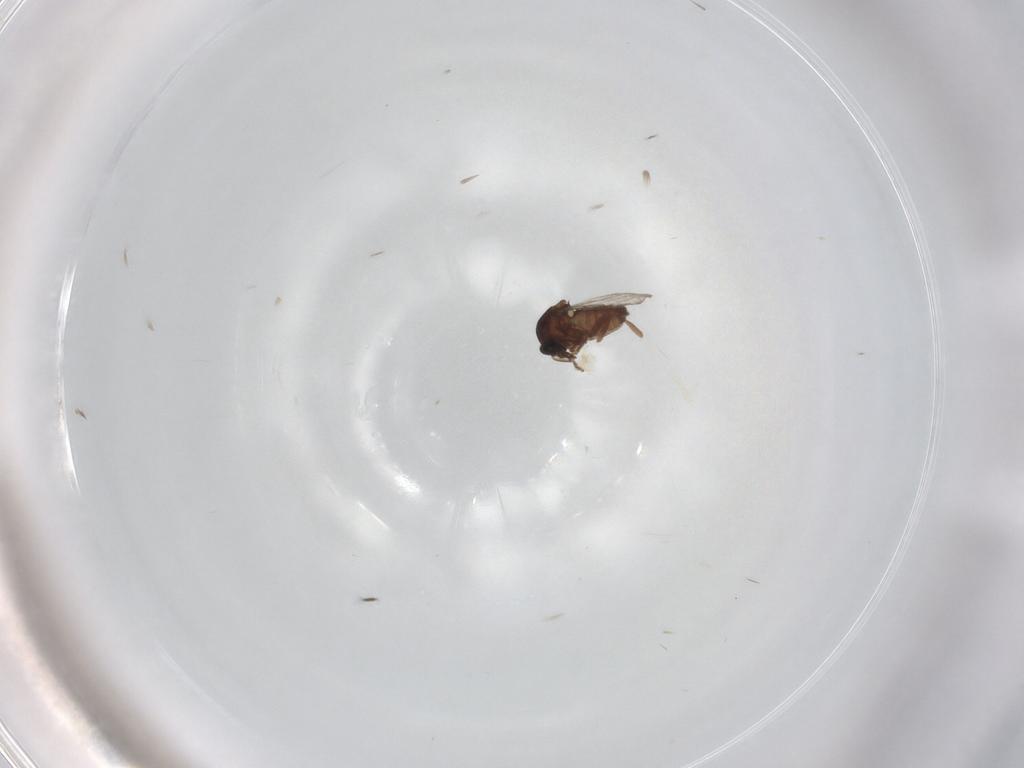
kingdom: Animalia
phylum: Arthropoda
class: Insecta
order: Diptera
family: Ceratopogonidae
